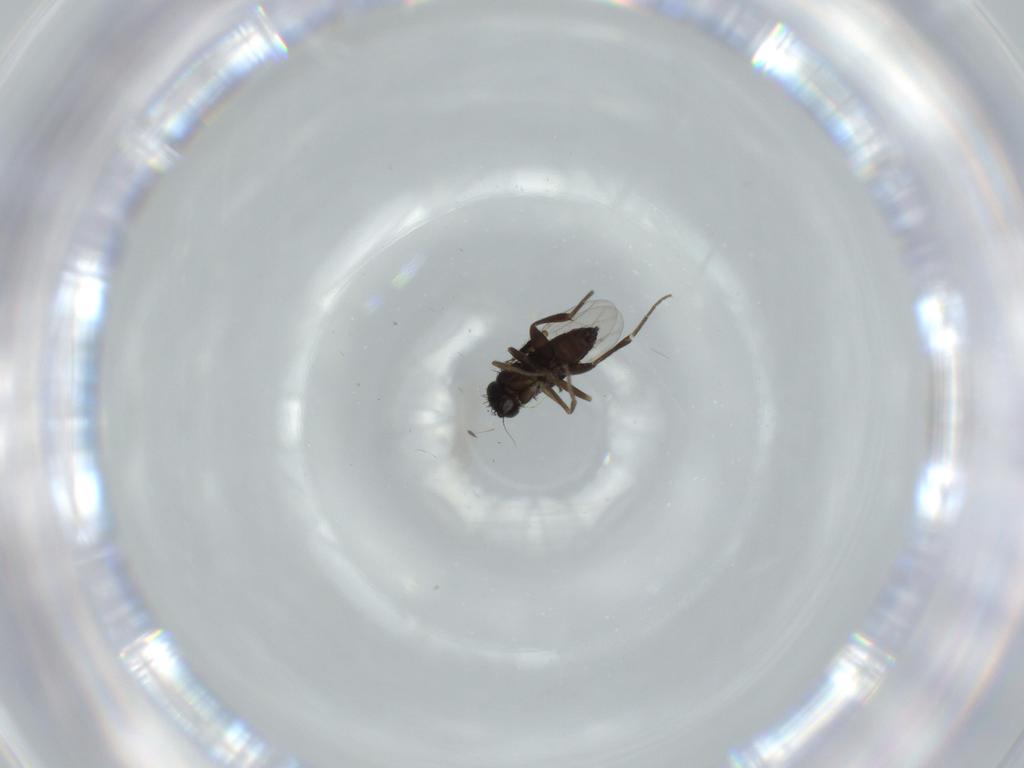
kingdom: Animalia
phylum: Arthropoda
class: Insecta
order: Diptera
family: Phoridae
